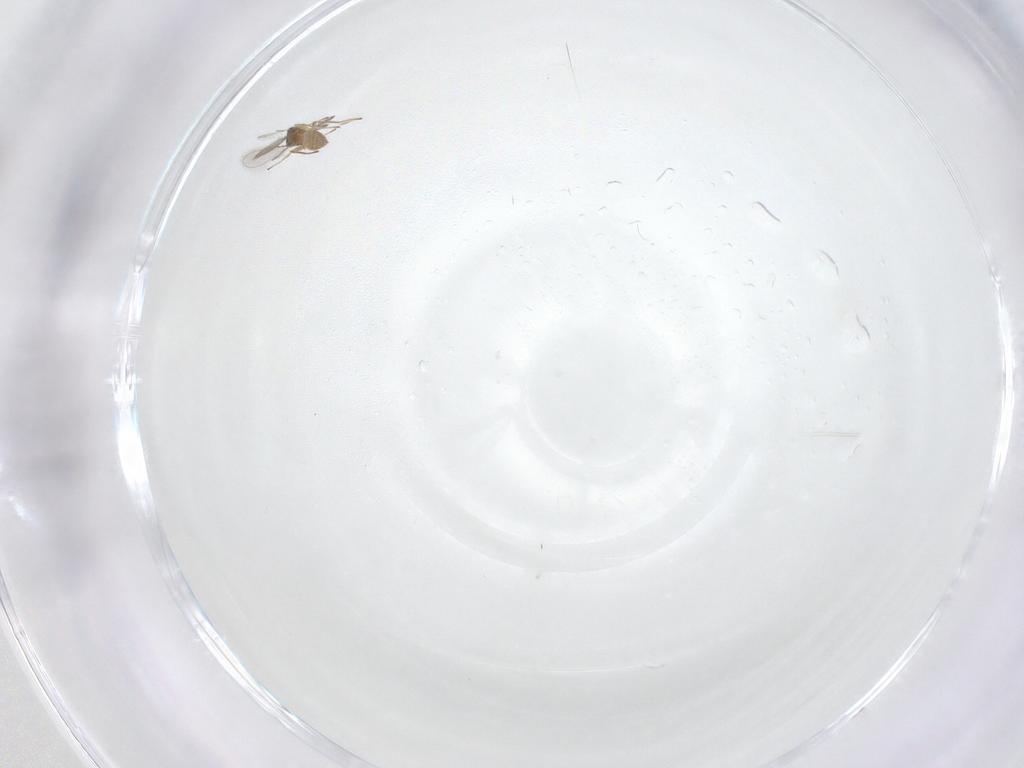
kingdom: Animalia
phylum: Arthropoda
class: Insecta
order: Hymenoptera
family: Mymaridae
